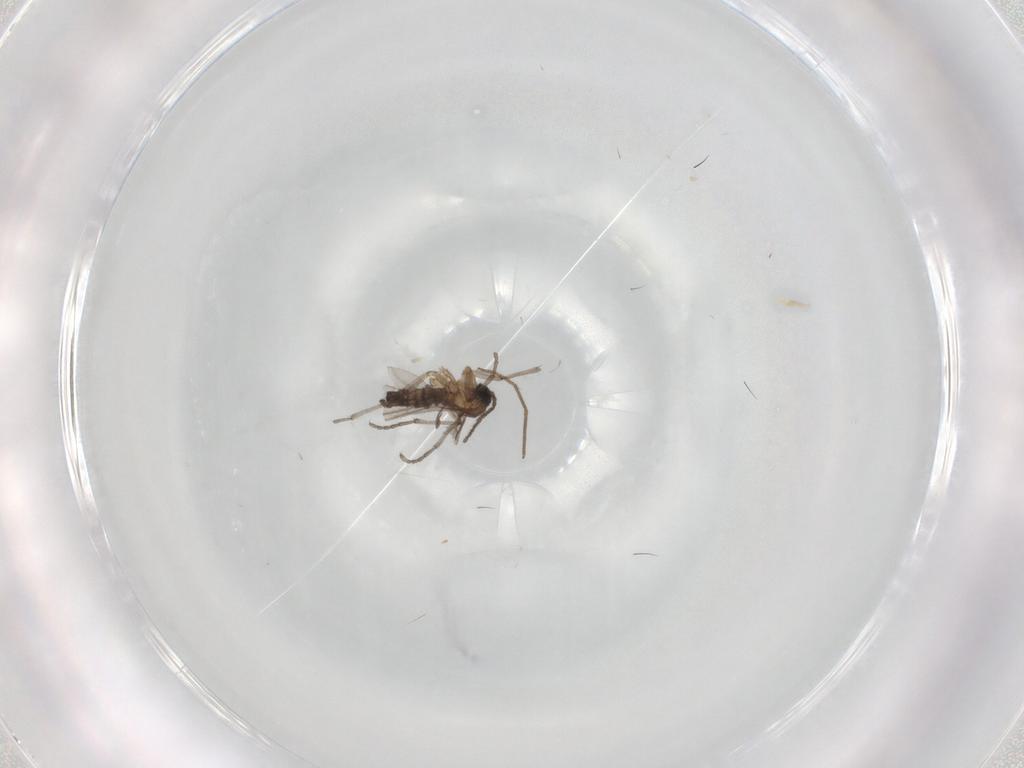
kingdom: Animalia
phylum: Arthropoda
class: Insecta
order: Diptera
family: Sciaridae
